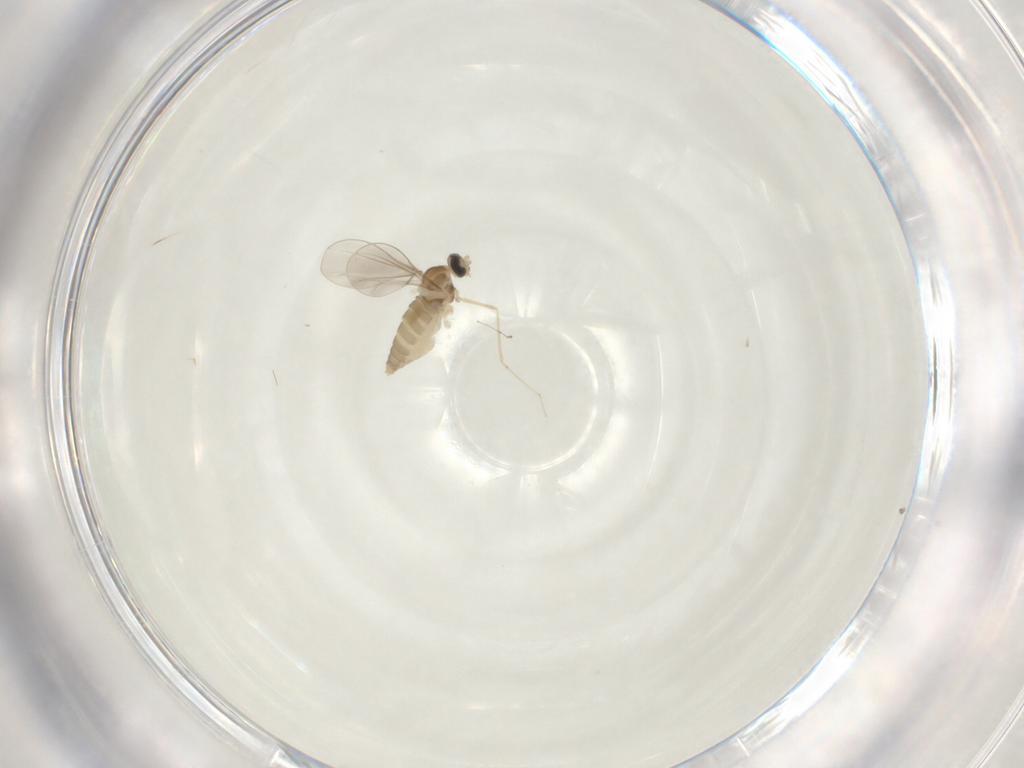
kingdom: Animalia
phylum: Arthropoda
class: Insecta
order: Diptera
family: Cecidomyiidae
